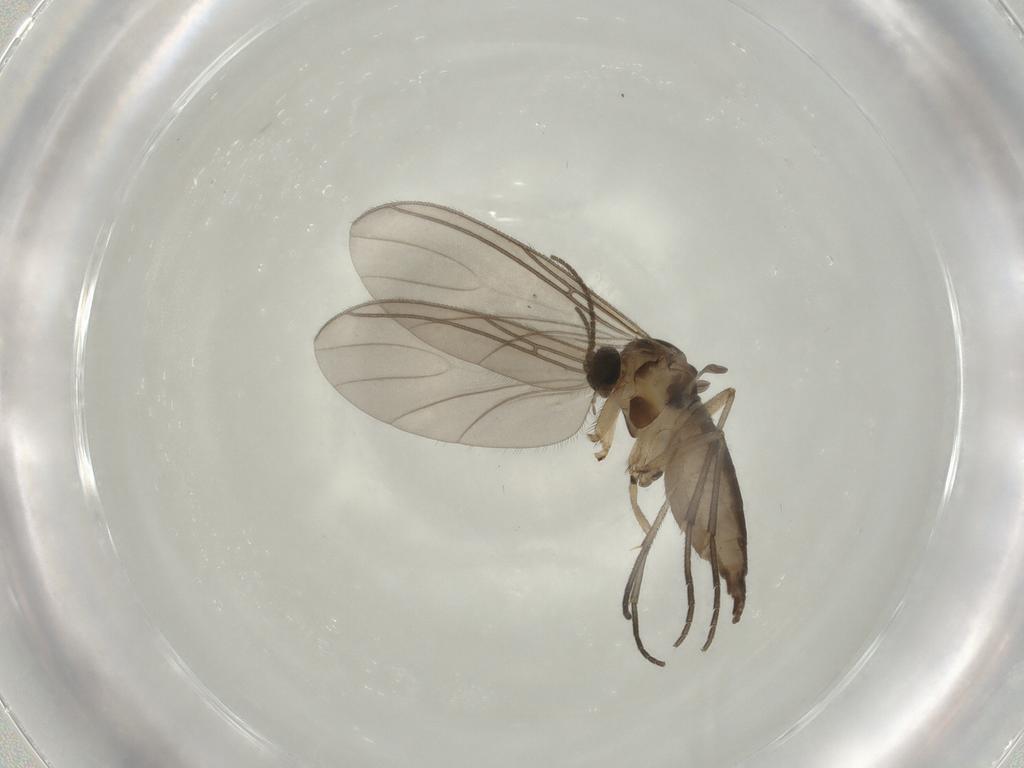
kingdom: Animalia
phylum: Arthropoda
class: Insecta
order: Diptera
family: Sciaridae
